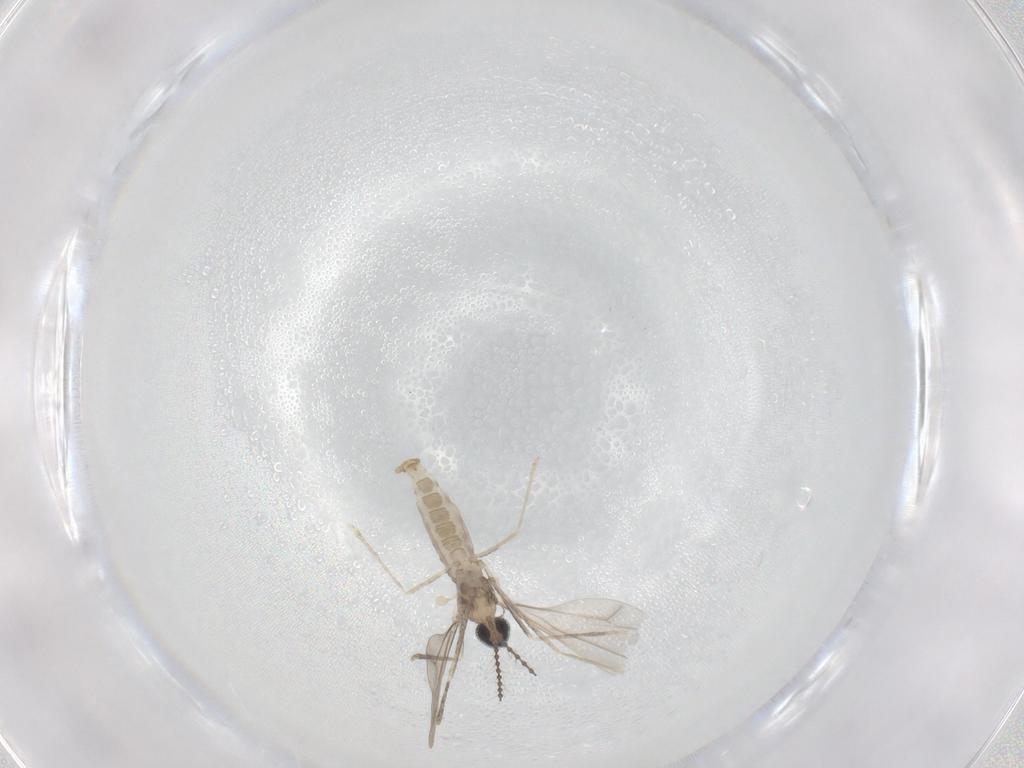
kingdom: Animalia
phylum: Arthropoda
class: Insecta
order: Diptera
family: Cecidomyiidae
